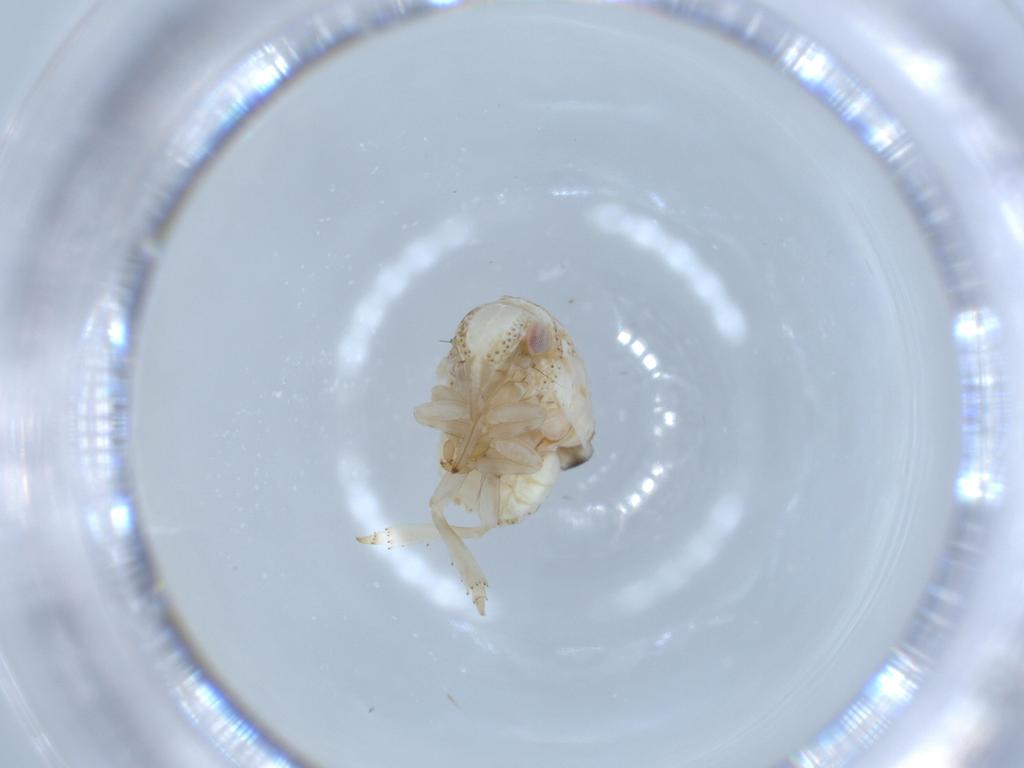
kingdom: Animalia
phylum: Arthropoda
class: Insecta
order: Hemiptera
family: Acanaloniidae
